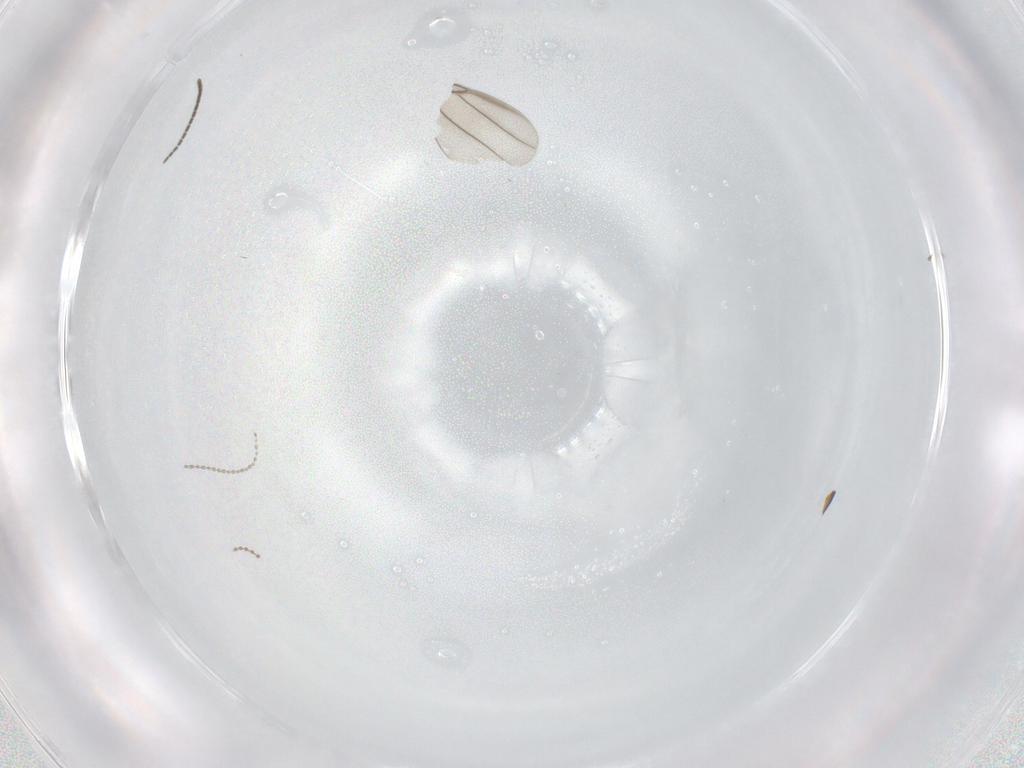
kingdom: Animalia
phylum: Arthropoda
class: Insecta
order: Diptera
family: Sciaridae
